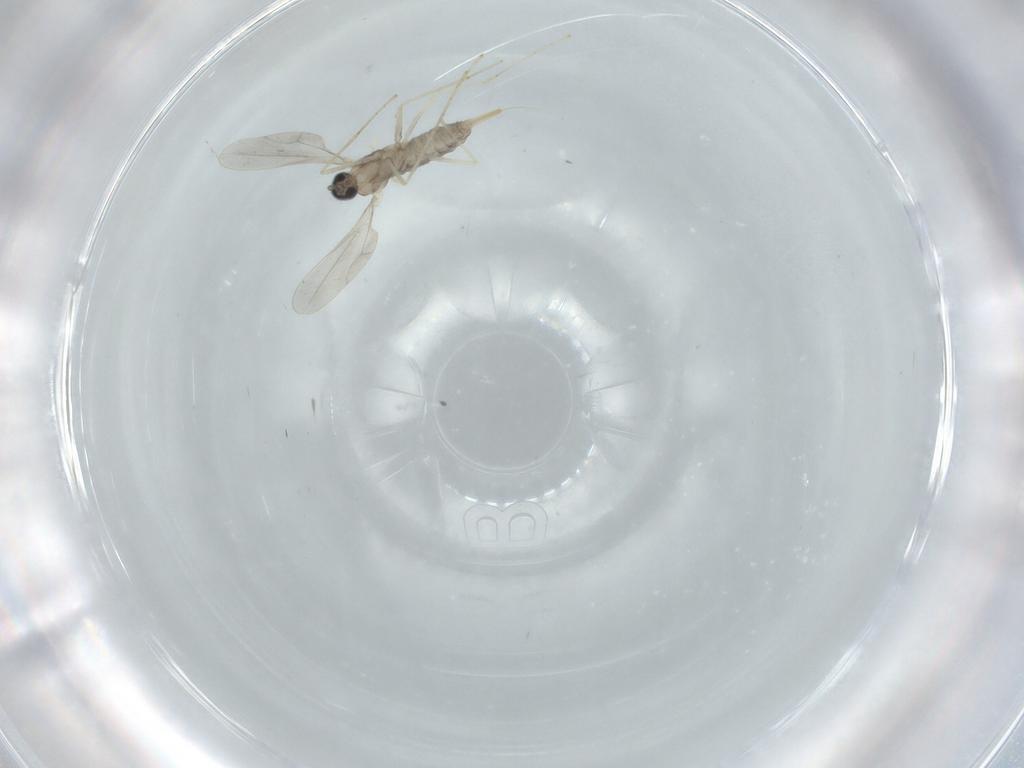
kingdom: Animalia
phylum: Arthropoda
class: Insecta
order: Diptera
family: Cecidomyiidae
